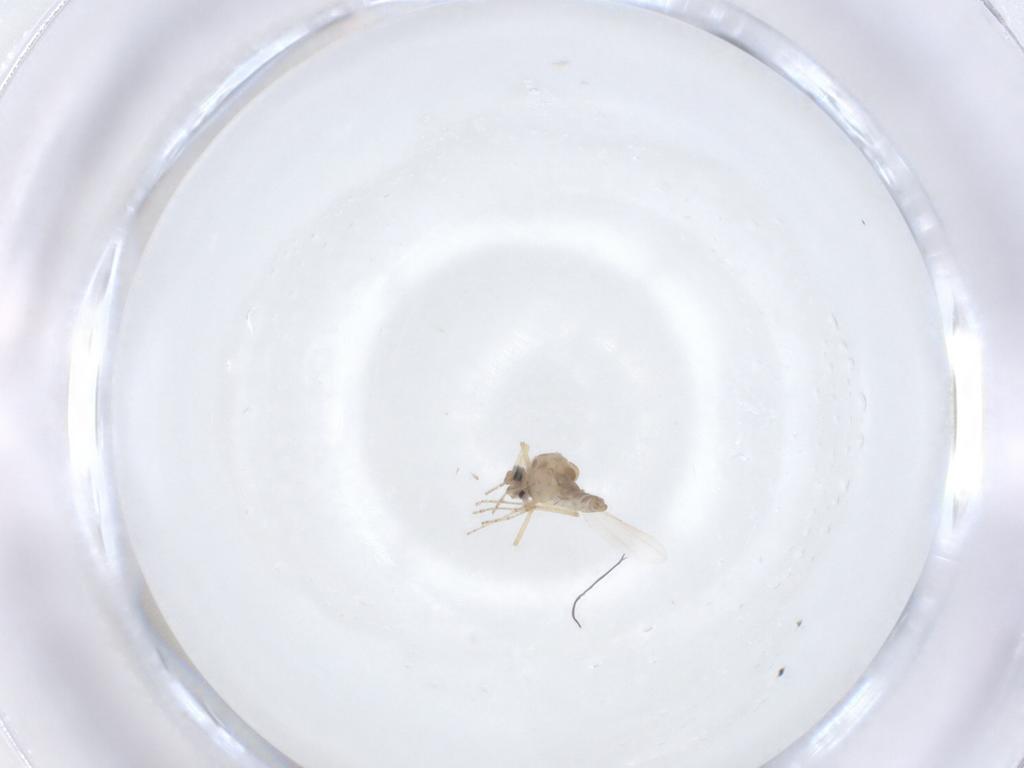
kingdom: Animalia
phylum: Arthropoda
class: Insecta
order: Diptera
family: Ceratopogonidae
